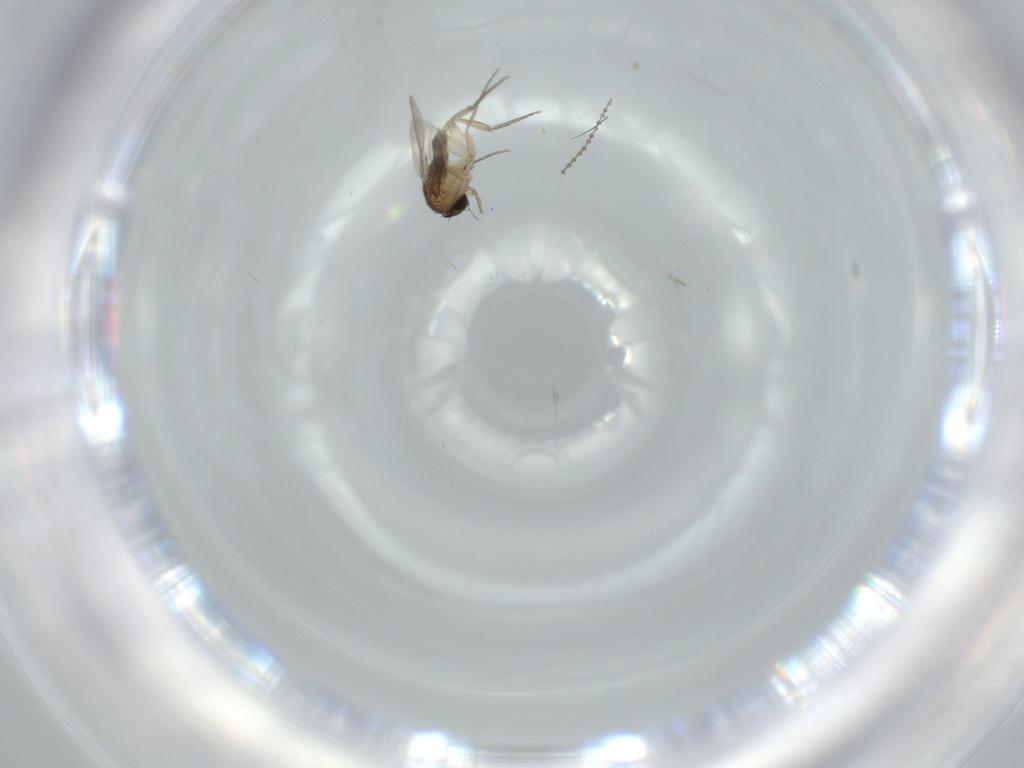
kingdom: Animalia
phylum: Arthropoda
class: Insecta
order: Diptera
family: Phoridae
